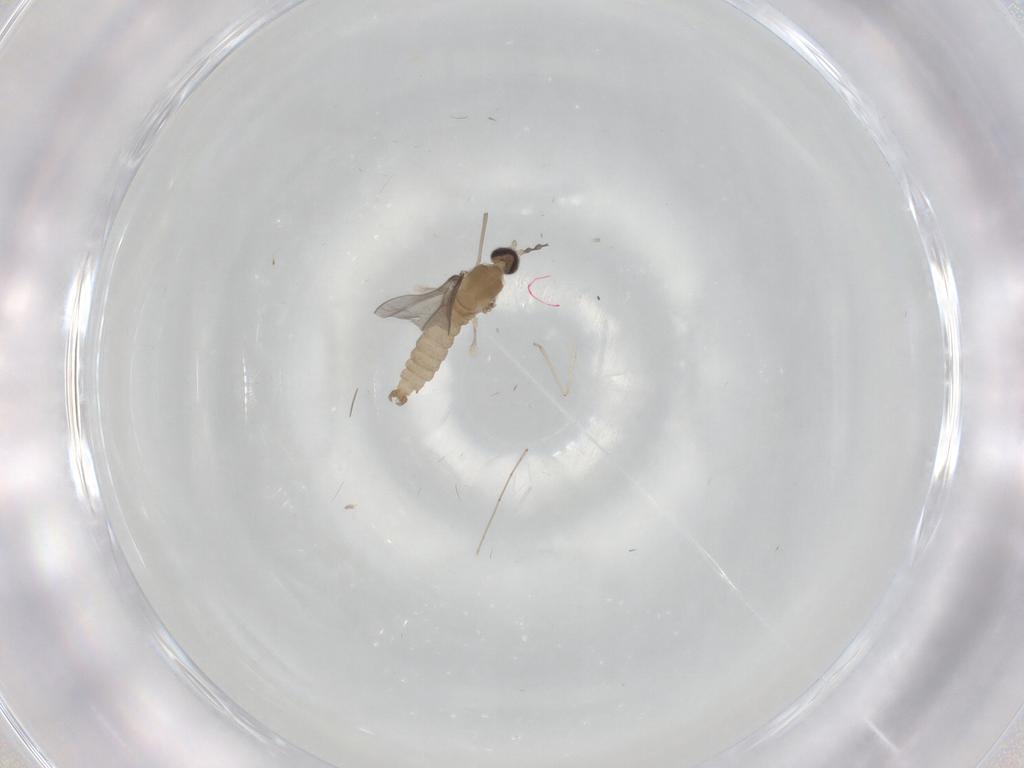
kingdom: Animalia
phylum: Arthropoda
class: Insecta
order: Diptera
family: Cecidomyiidae
